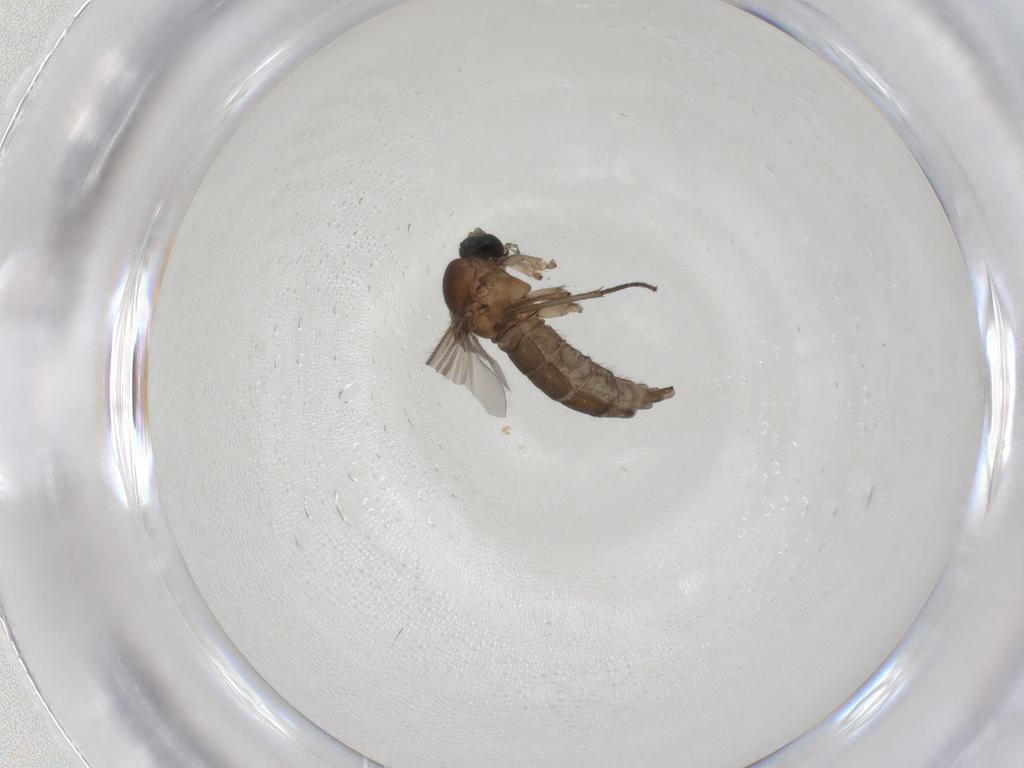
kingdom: Animalia
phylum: Arthropoda
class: Insecta
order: Diptera
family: Sciaridae
